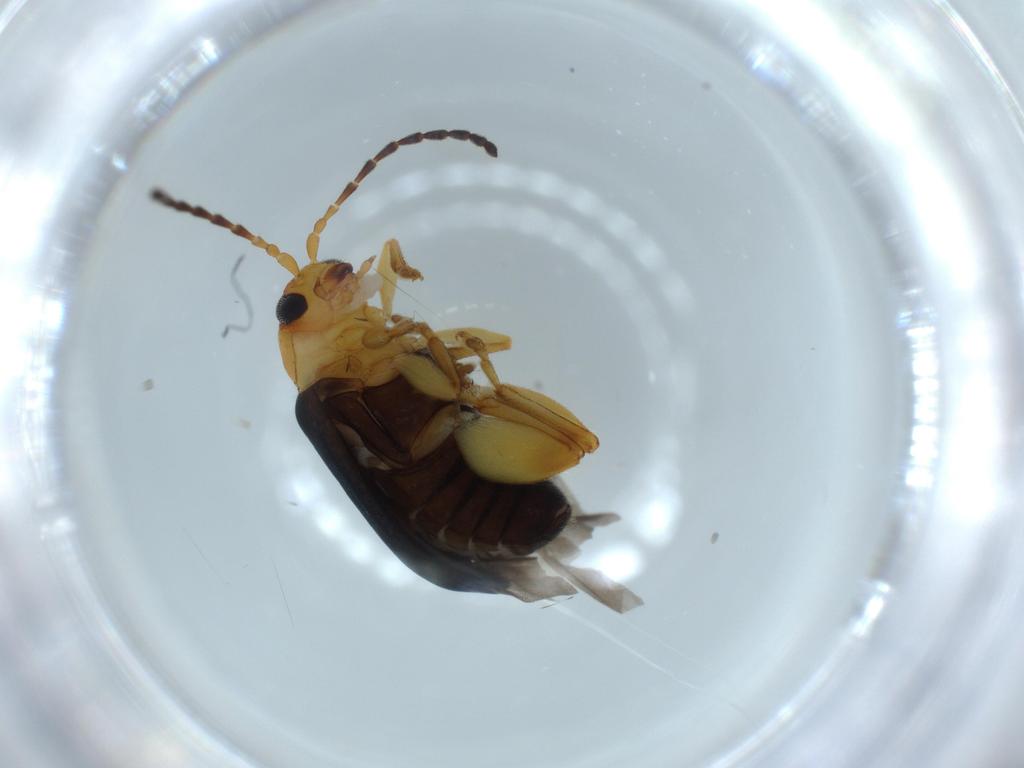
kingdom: Animalia
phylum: Arthropoda
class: Insecta
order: Coleoptera
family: Chrysomelidae
